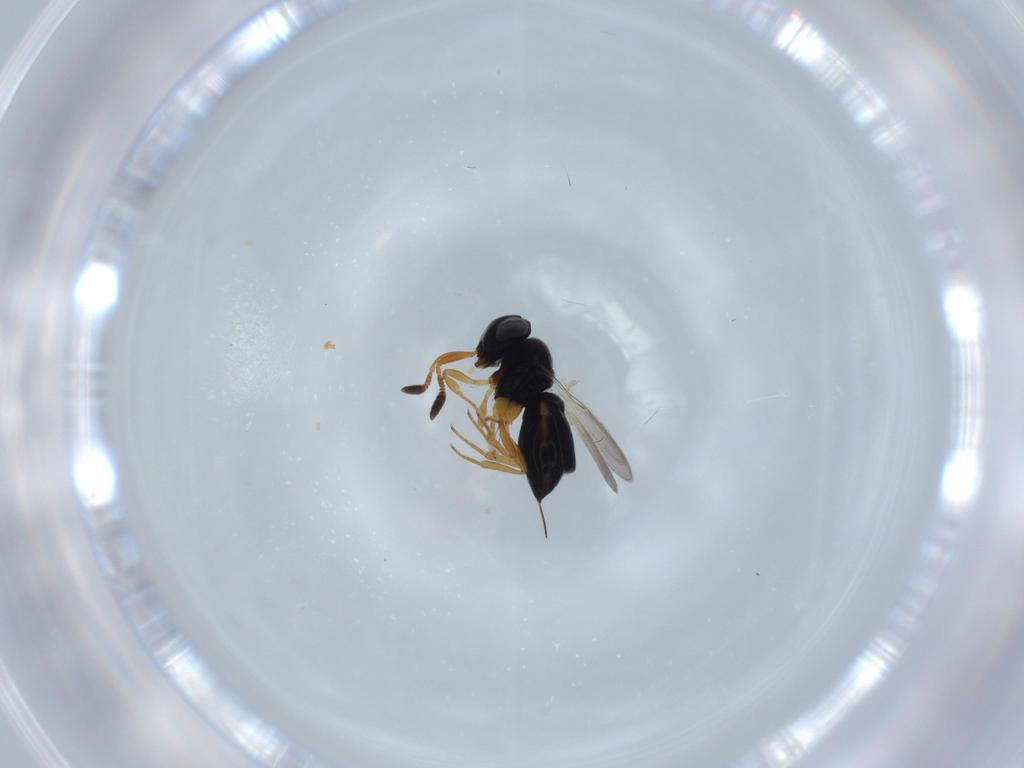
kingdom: Animalia
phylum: Arthropoda
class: Insecta
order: Hymenoptera
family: Scelionidae
